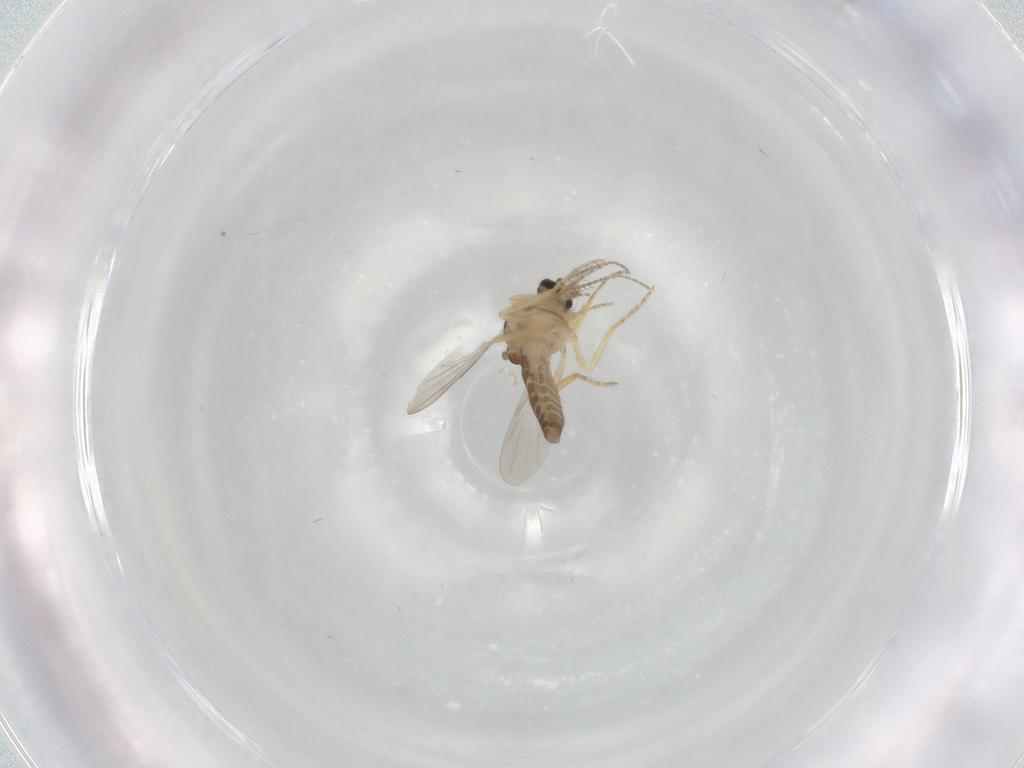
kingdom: Animalia
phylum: Arthropoda
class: Insecta
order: Diptera
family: Ceratopogonidae
